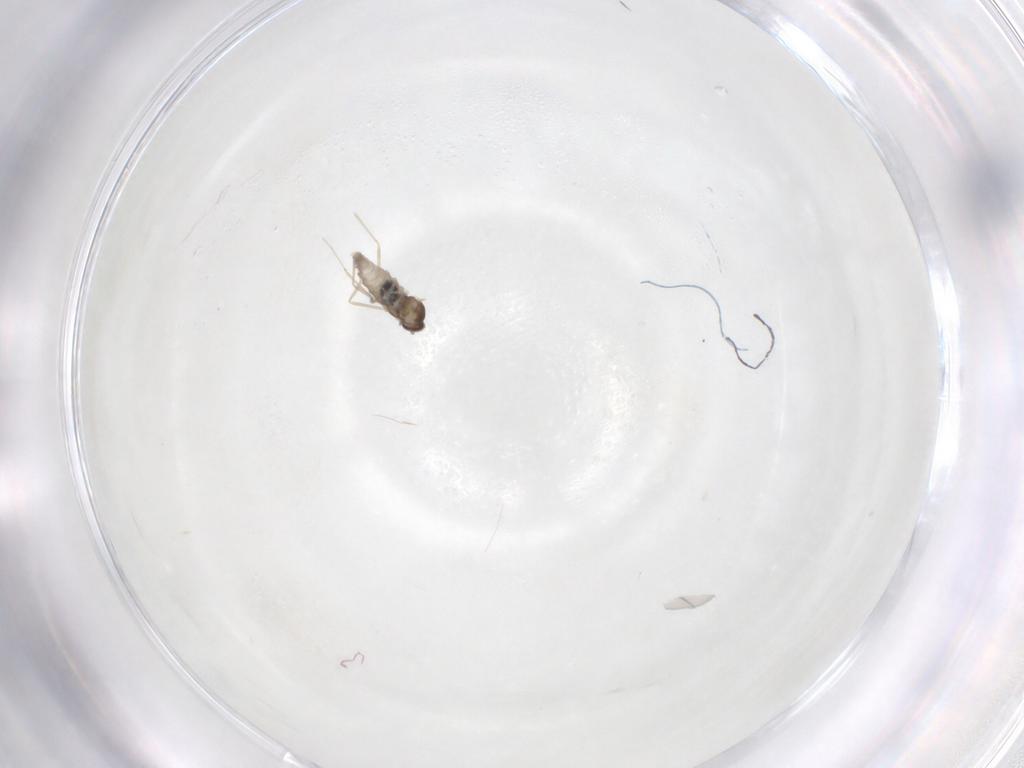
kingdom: Animalia
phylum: Arthropoda
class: Insecta
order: Diptera
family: Cecidomyiidae
